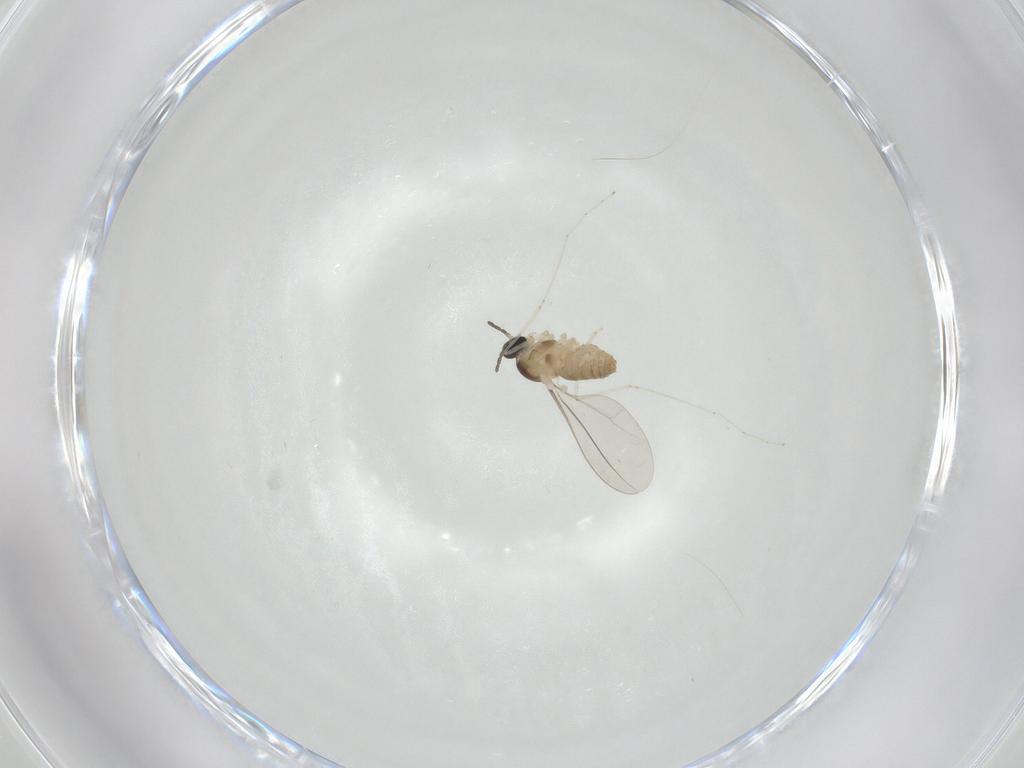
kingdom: Animalia
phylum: Arthropoda
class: Insecta
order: Diptera
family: Cecidomyiidae
